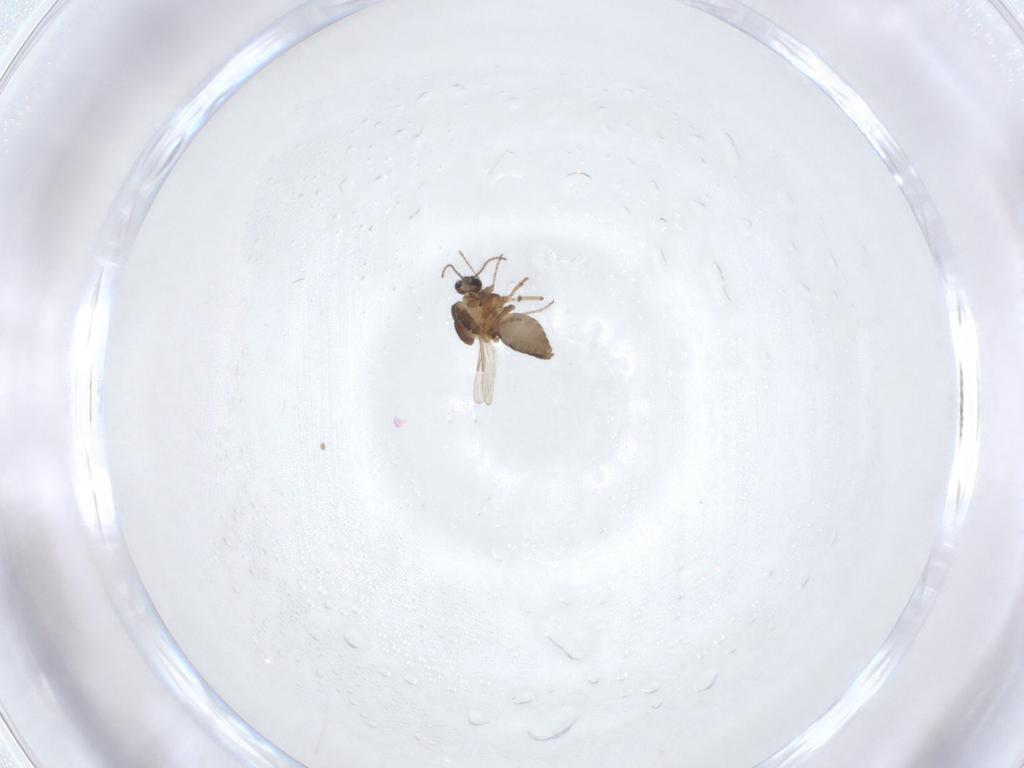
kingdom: Animalia
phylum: Arthropoda
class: Insecta
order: Diptera
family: Ceratopogonidae
